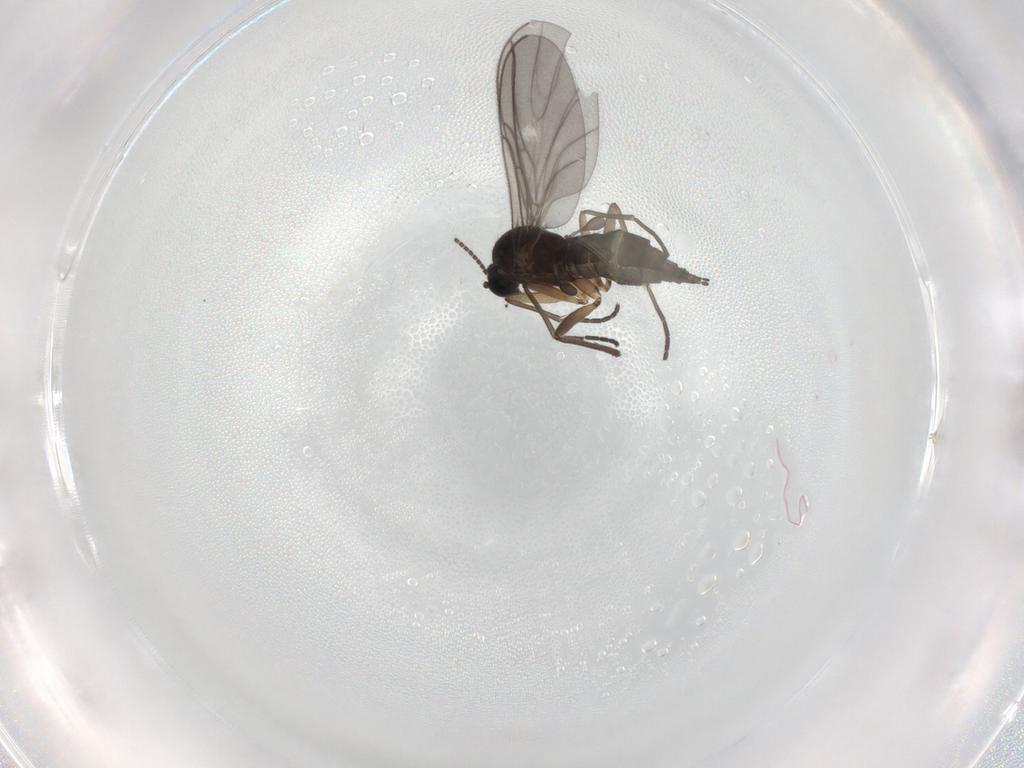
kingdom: Animalia
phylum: Arthropoda
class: Insecta
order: Diptera
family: Sciaridae
